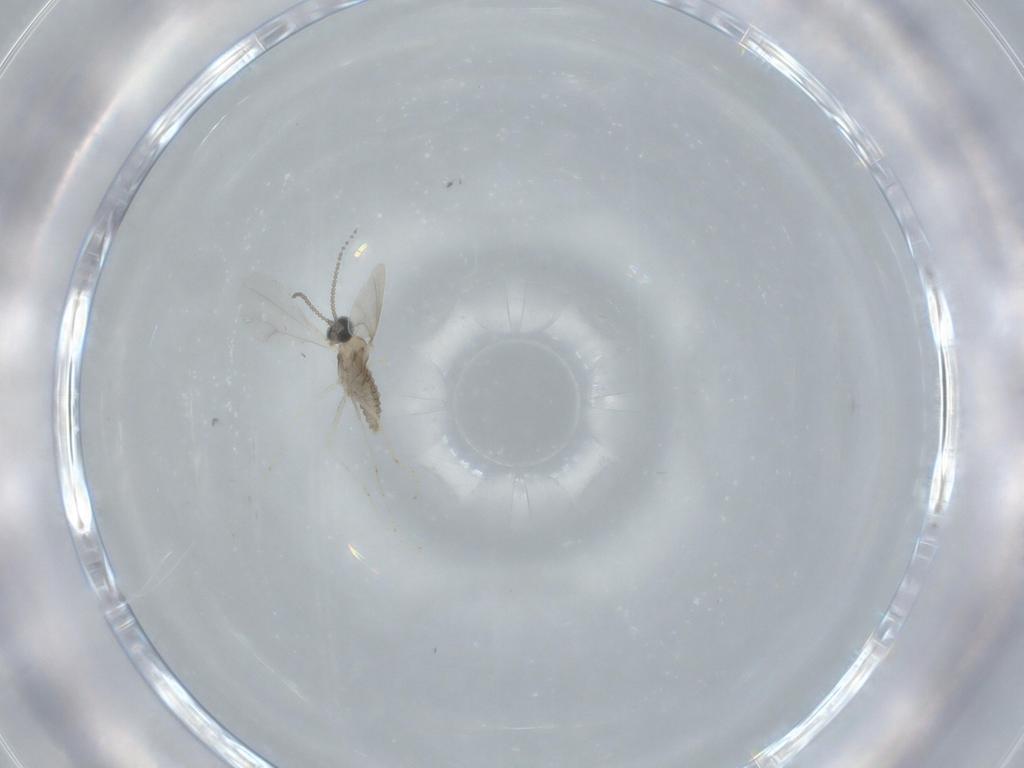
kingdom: Animalia
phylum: Arthropoda
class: Insecta
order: Diptera
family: Cecidomyiidae
